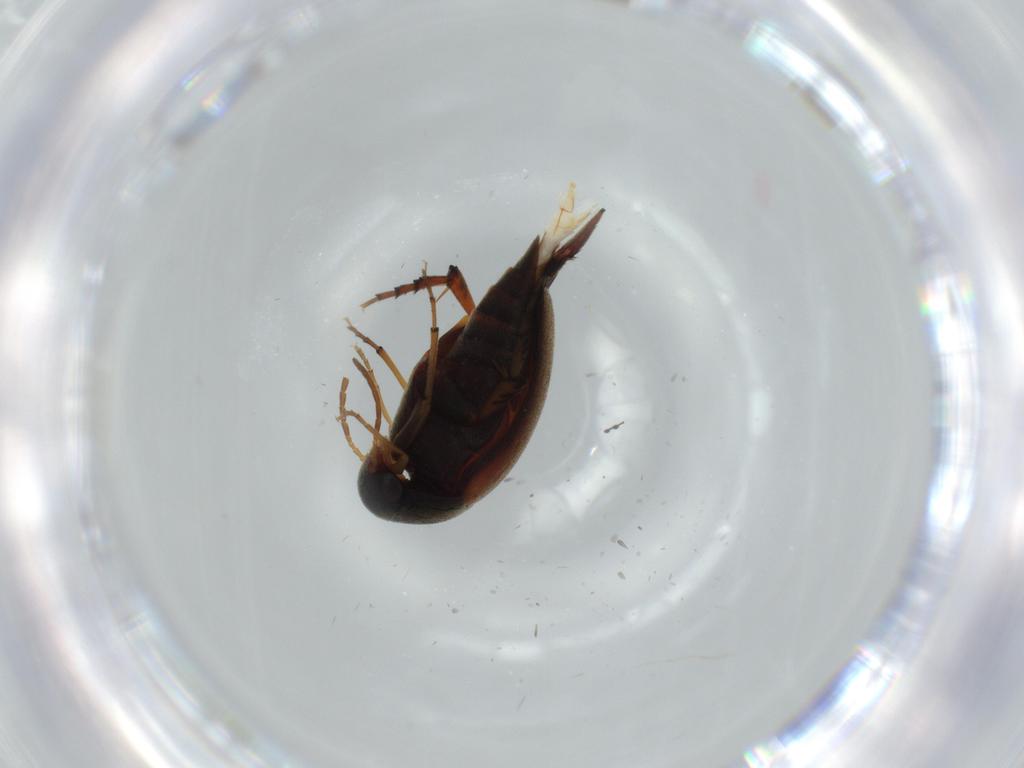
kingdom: Animalia
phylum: Arthropoda
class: Insecta
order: Coleoptera
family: Mordellidae
